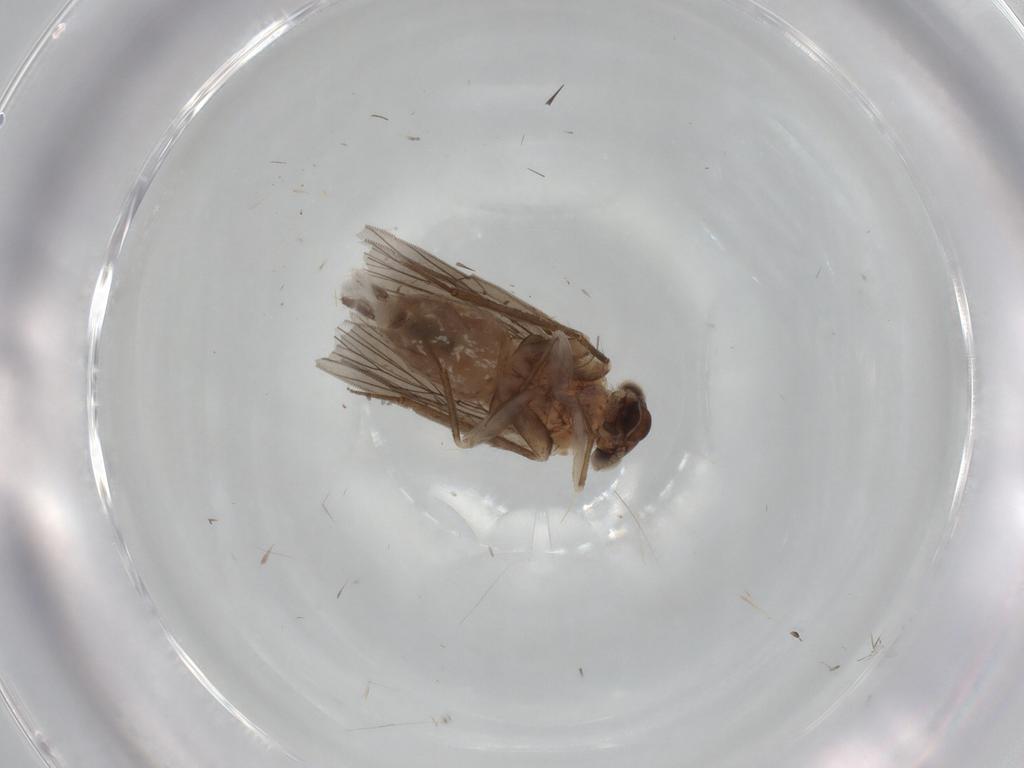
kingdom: Animalia
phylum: Arthropoda
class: Insecta
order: Psocodea
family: Lepidopsocidae
